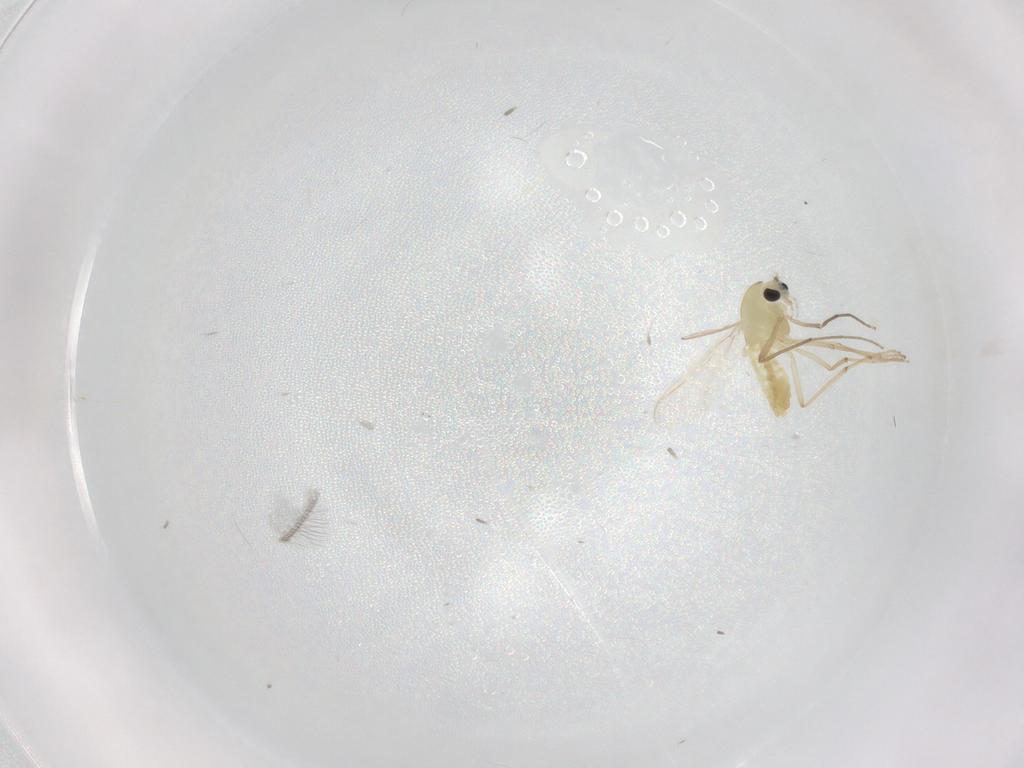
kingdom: Animalia
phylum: Arthropoda
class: Insecta
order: Diptera
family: Chironomidae
